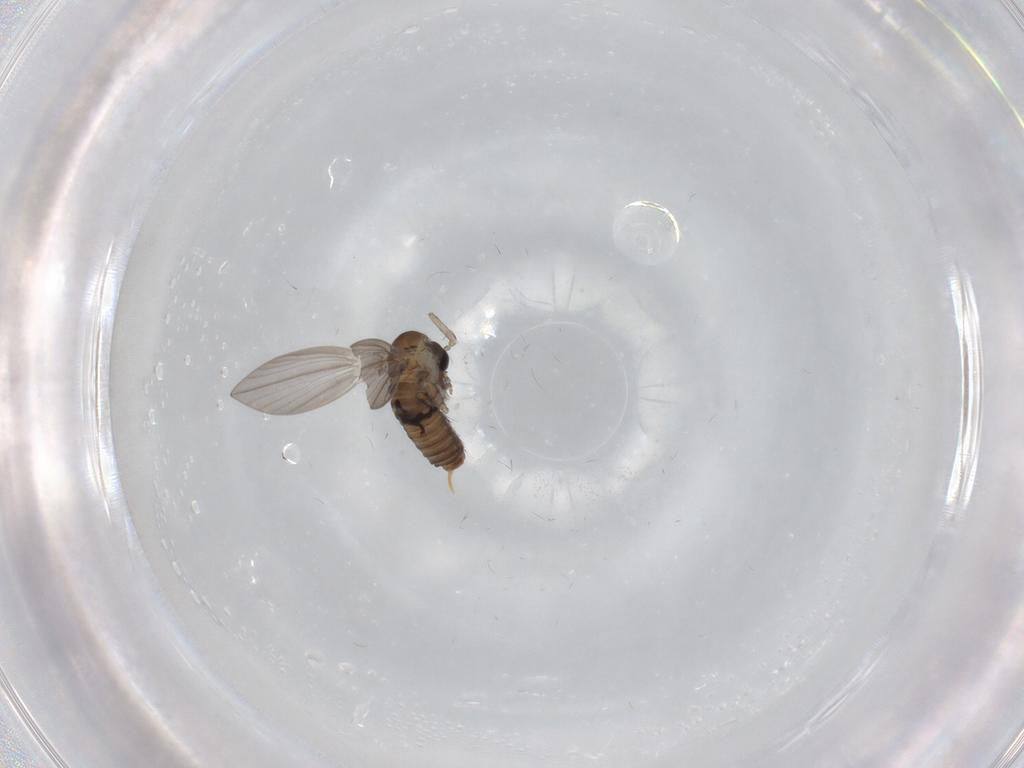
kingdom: Animalia
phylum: Arthropoda
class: Insecta
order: Diptera
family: Psychodidae
